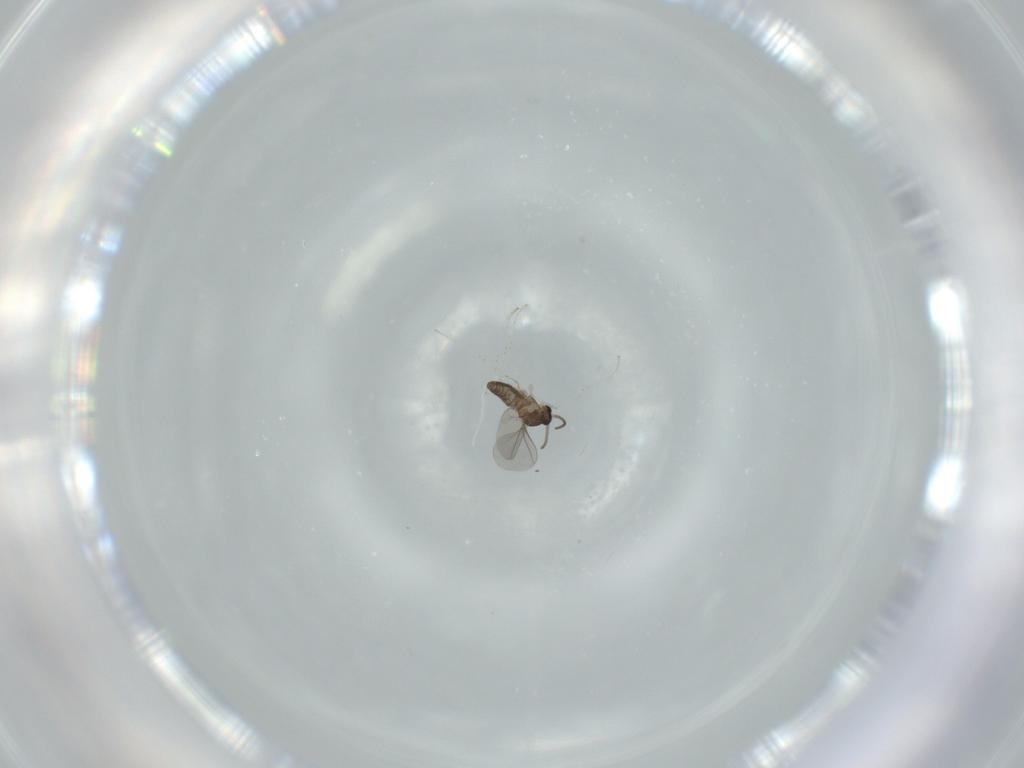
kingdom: Animalia
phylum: Arthropoda
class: Insecta
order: Diptera
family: Cecidomyiidae
